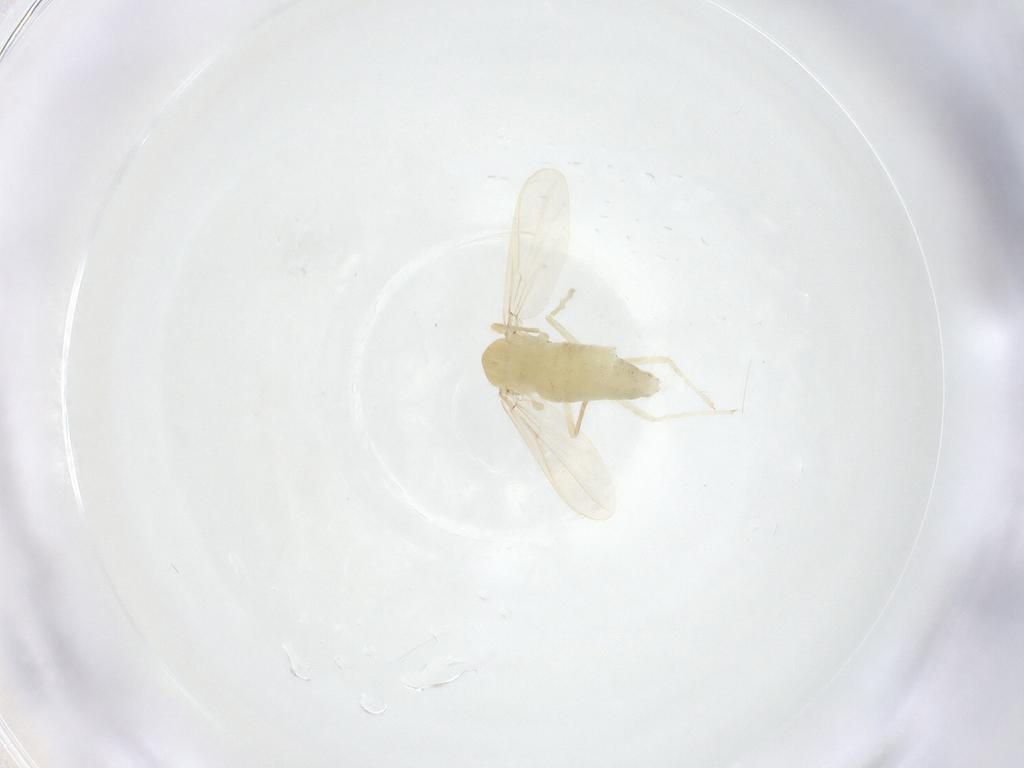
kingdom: Animalia
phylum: Arthropoda
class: Insecta
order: Diptera
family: Chironomidae
